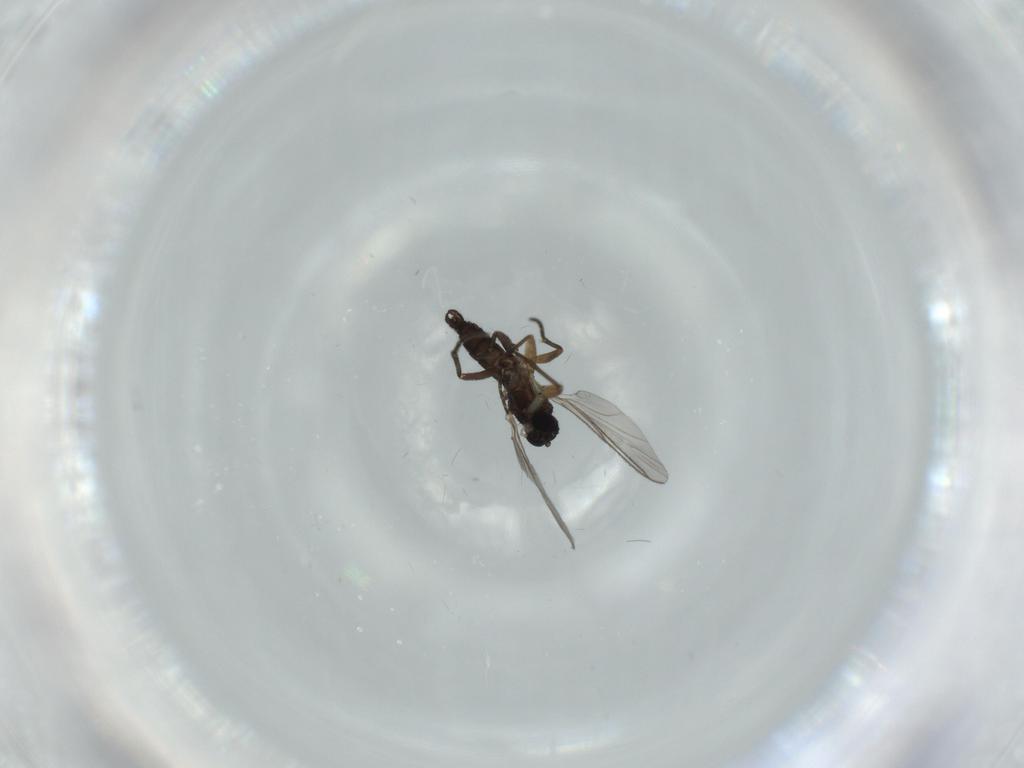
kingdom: Animalia
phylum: Arthropoda
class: Insecta
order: Diptera
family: Sciaridae
